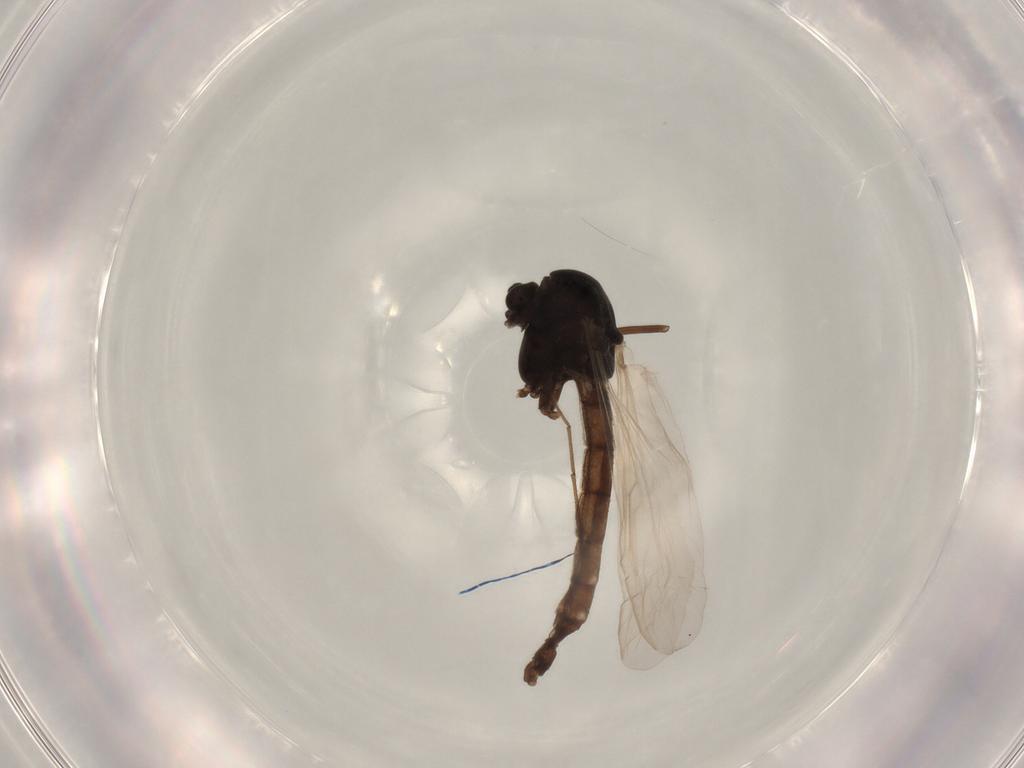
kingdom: Animalia
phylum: Arthropoda
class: Insecta
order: Diptera
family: Chironomidae
